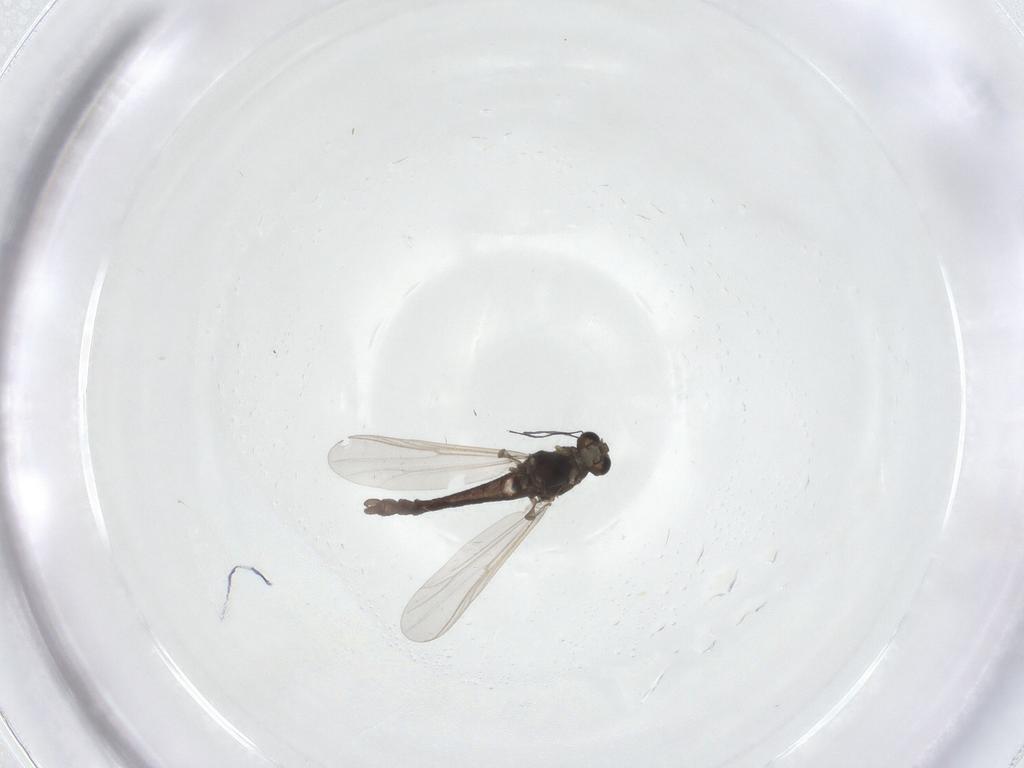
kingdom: Animalia
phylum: Arthropoda
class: Insecta
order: Diptera
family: Chironomidae
